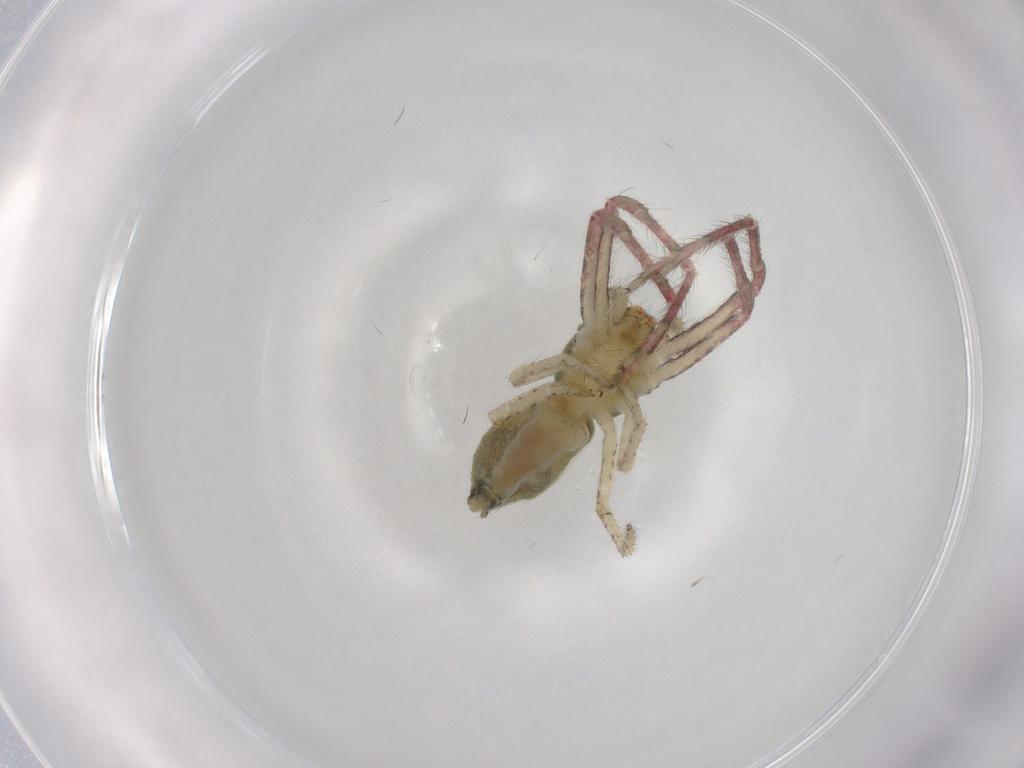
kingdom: Animalia
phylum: Arthropoda
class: Arachnida
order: Araneae
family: Thomisidae
